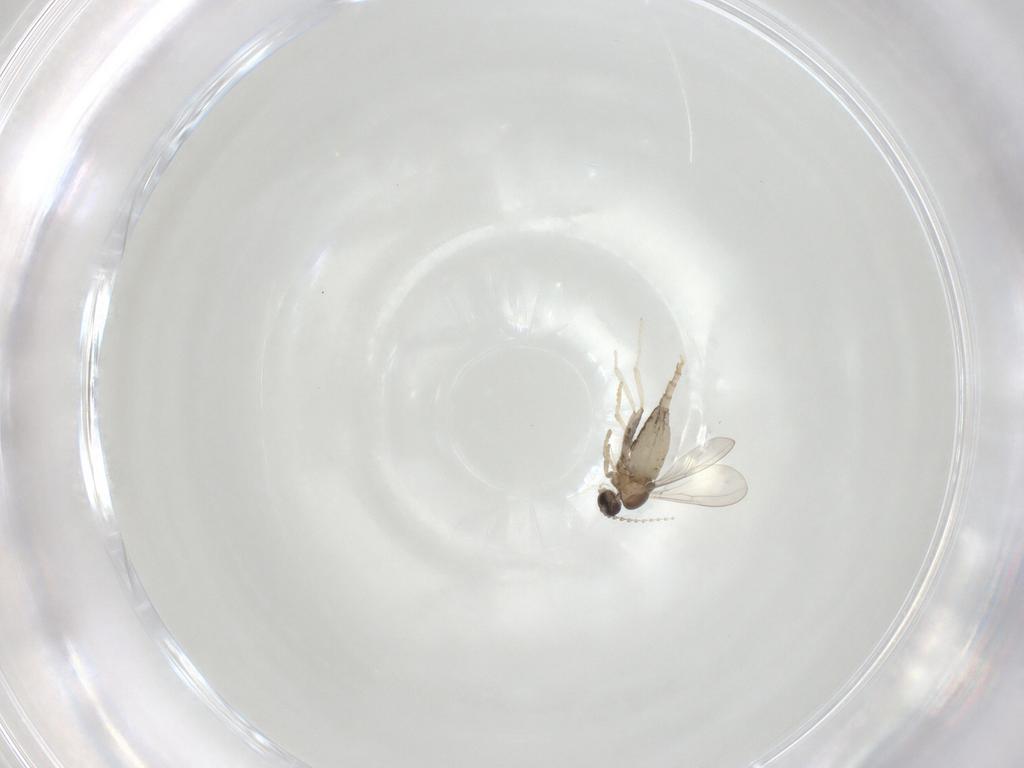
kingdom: Animalia
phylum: Arthropoda
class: Insecta
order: Diptera
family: Cecidomyiidae
